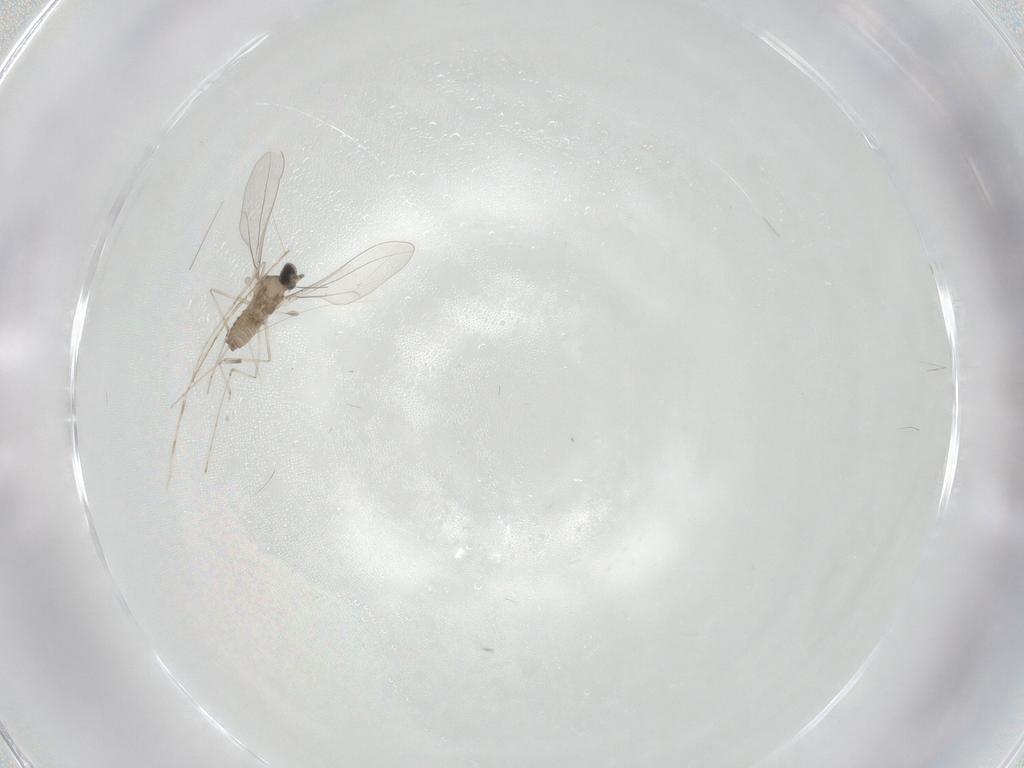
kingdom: Animalia
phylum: Arthropoda
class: Insecta
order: Diptera
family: Cecidomyiidae
